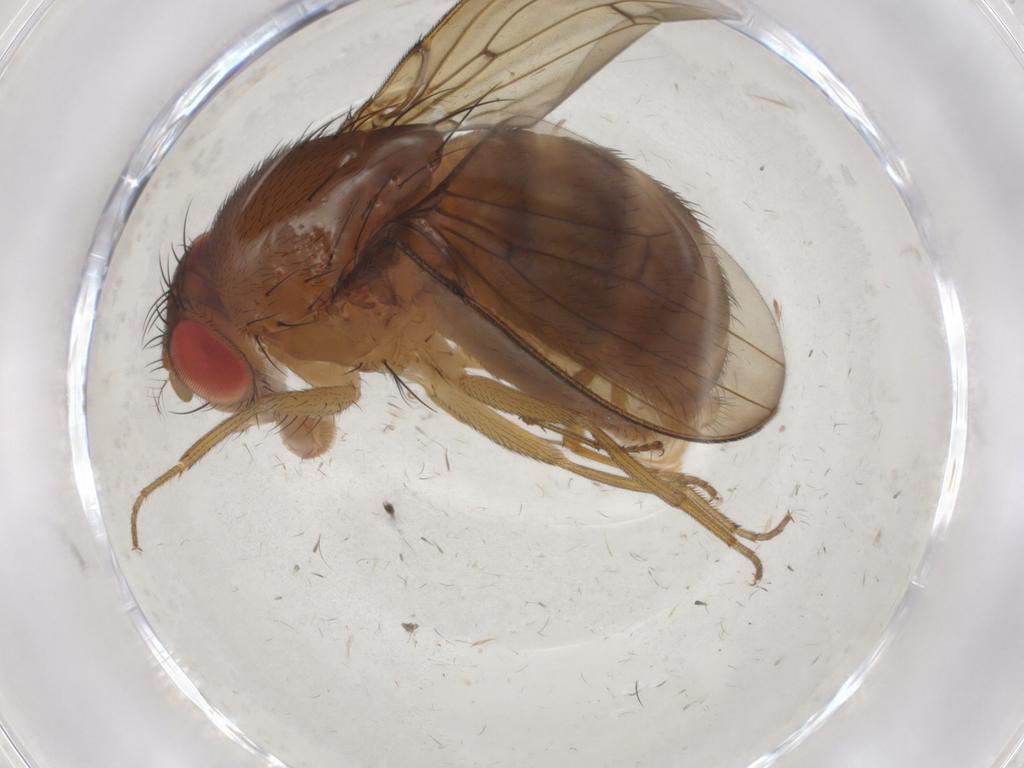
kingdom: Animalia
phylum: Arthropoda
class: Insecta
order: Diptera
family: Drosophilidae
